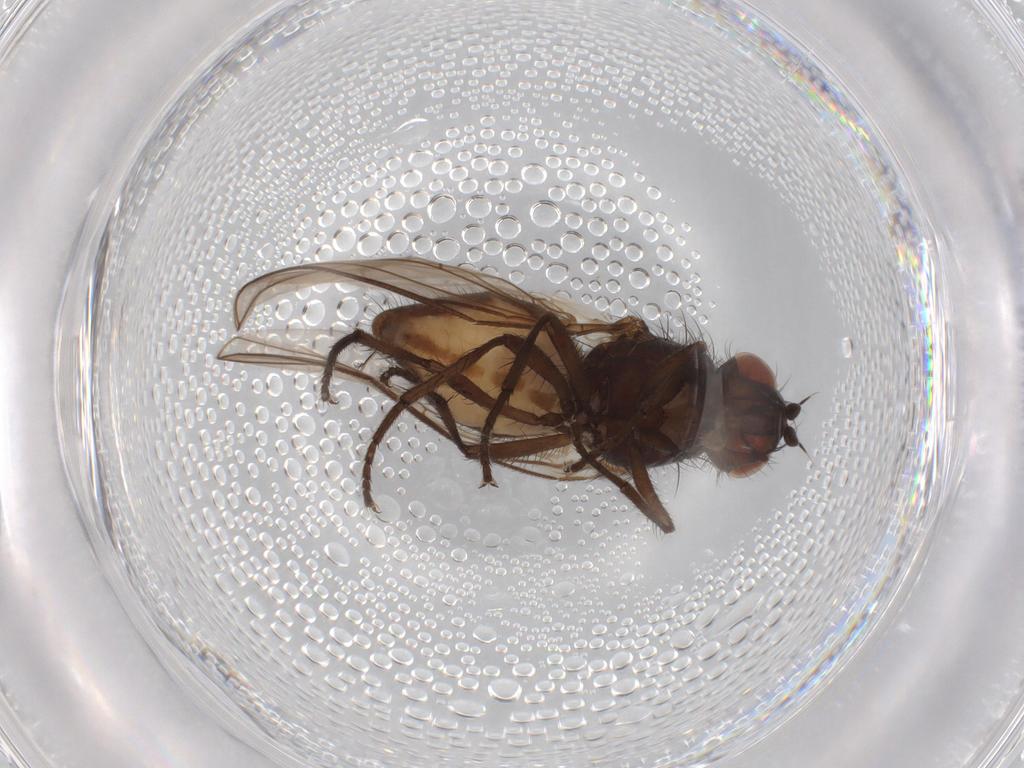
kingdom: Animalia
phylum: Arthropoda
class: Insecta
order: Diptera
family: Anthomyiidae
